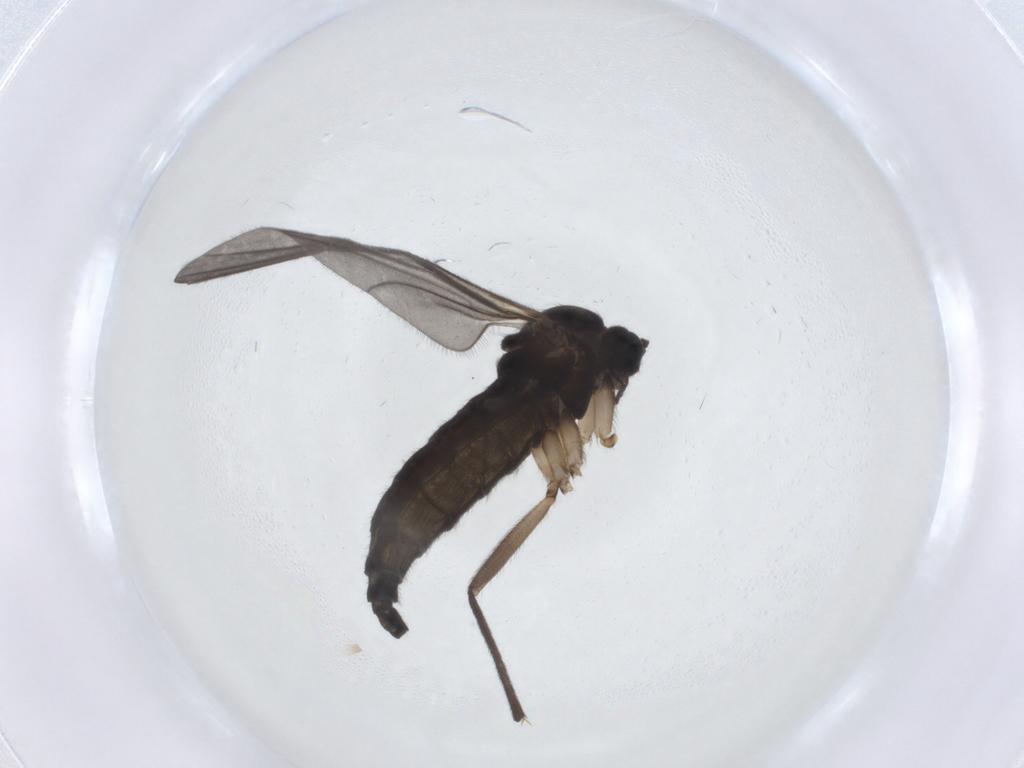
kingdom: Animalia
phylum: Arthropoda
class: Insecta
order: Diptera
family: Sciaridae
